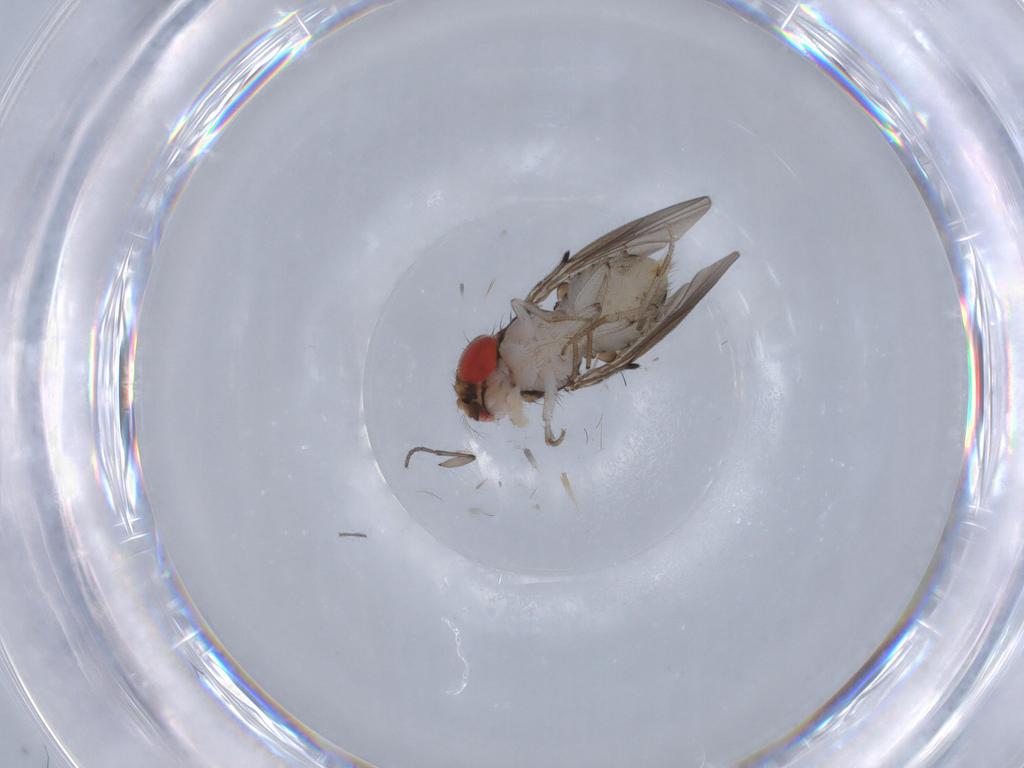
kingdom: Animalia
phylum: Arthropoda
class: Insecta
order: Diptera
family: Drosophilidae
